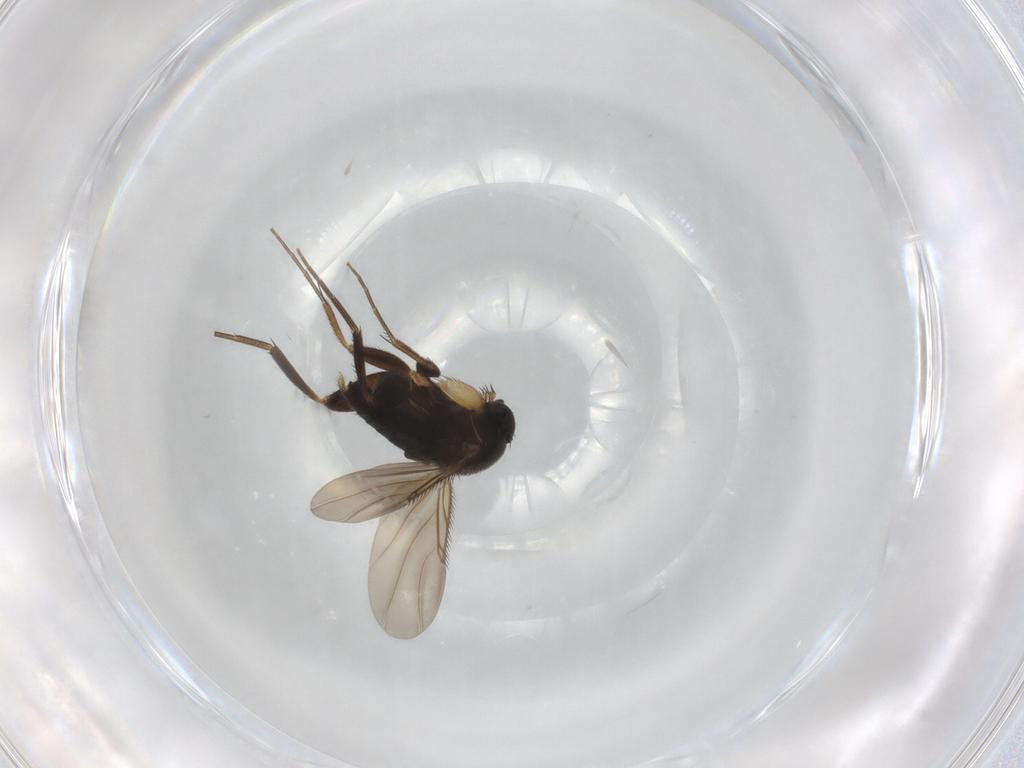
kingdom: Animalia
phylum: Arthropoda
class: Insecta
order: Diptera
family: Phoridae
